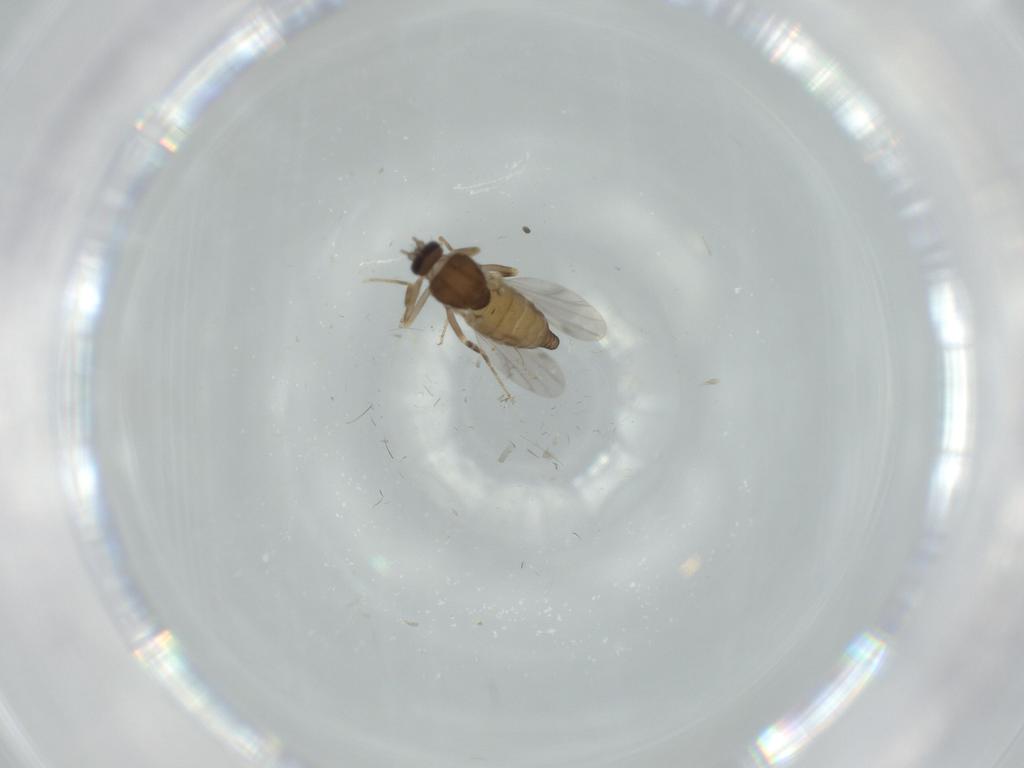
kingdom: Animalia
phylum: Arthropoda
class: Insecta
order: Diptera
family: Ceratopogonidae
